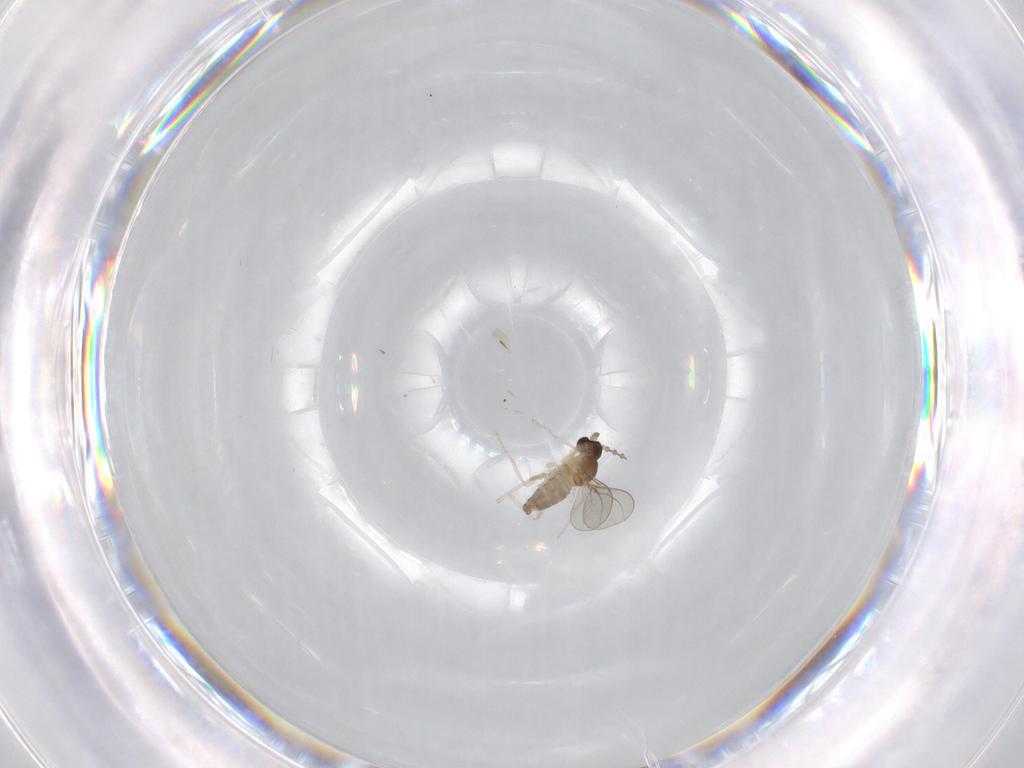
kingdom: Animalia
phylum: Arthropoda
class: Insecta
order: Diptera
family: Cecidomyiidae
